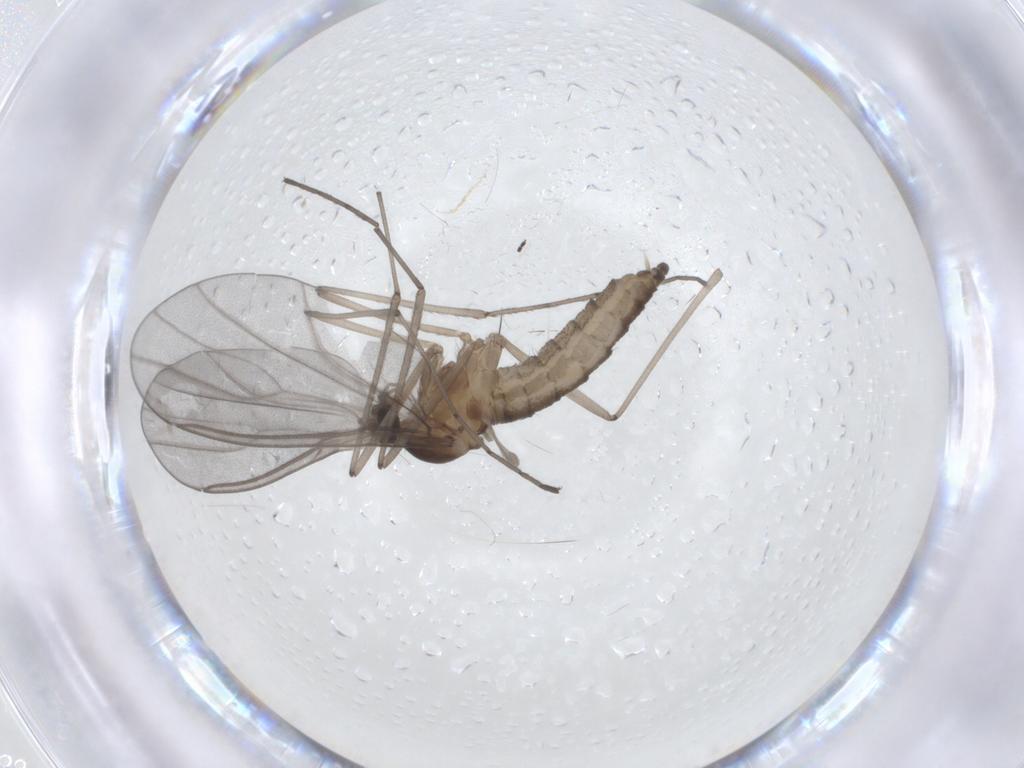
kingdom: Animalia
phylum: Arthropoda
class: Insecta
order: Diptera
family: Cecidomyiidae
